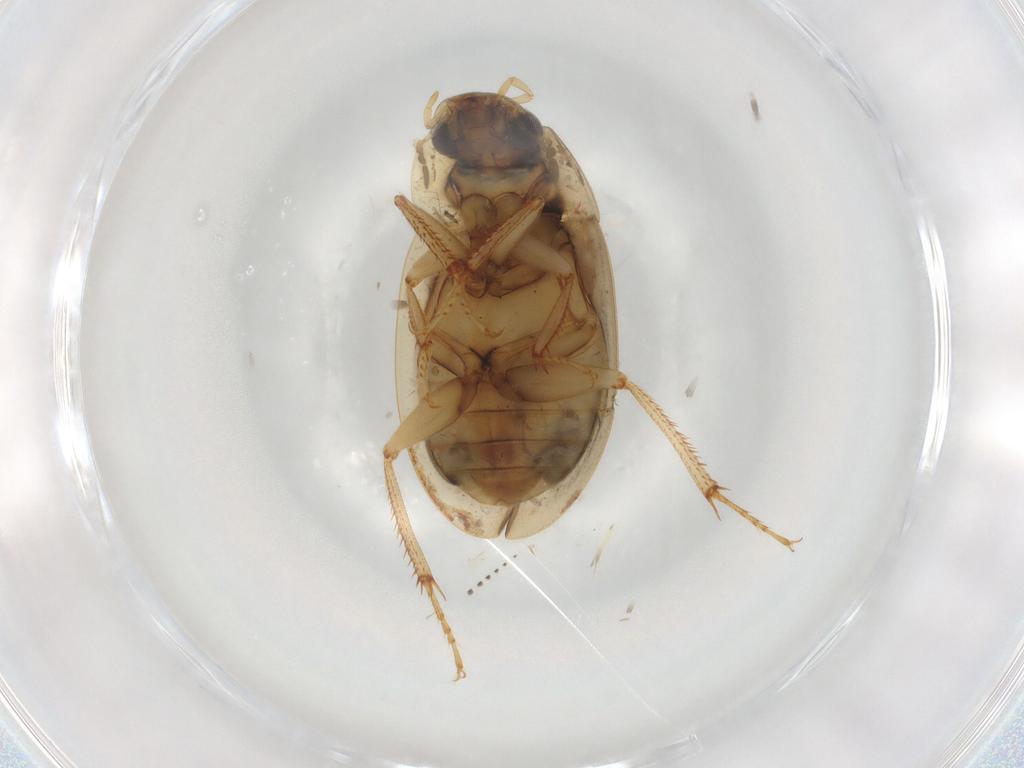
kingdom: Animalia
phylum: Arthropoda
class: Insecta
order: Coleoptera
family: Hydrophilidae
